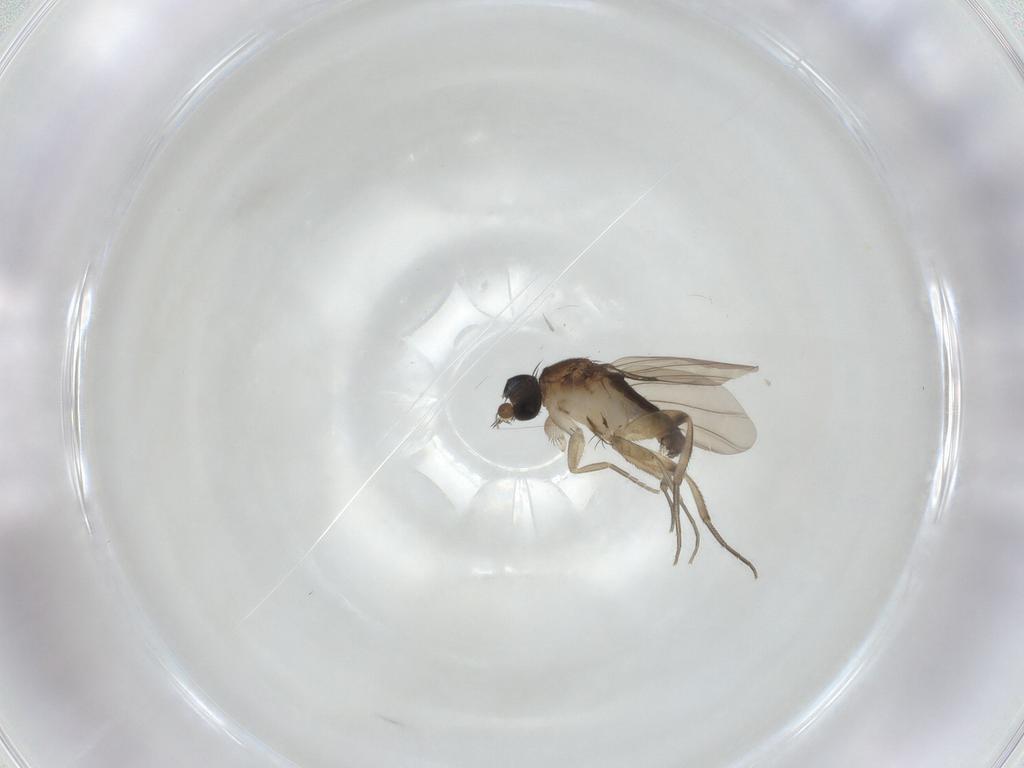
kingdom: Animalia
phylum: Arthropoda
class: Insecta
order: Diptera
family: Phoridae
